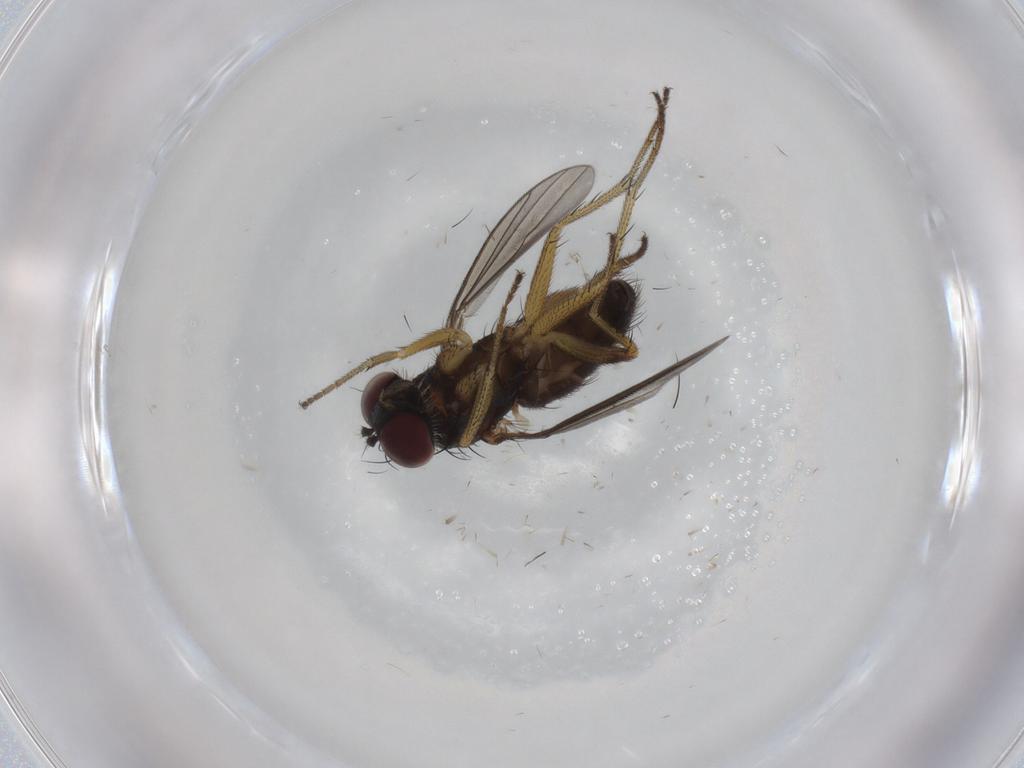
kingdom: Animalia
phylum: Arthropoda
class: Insecta
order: Diptera
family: Dolichopodidae
